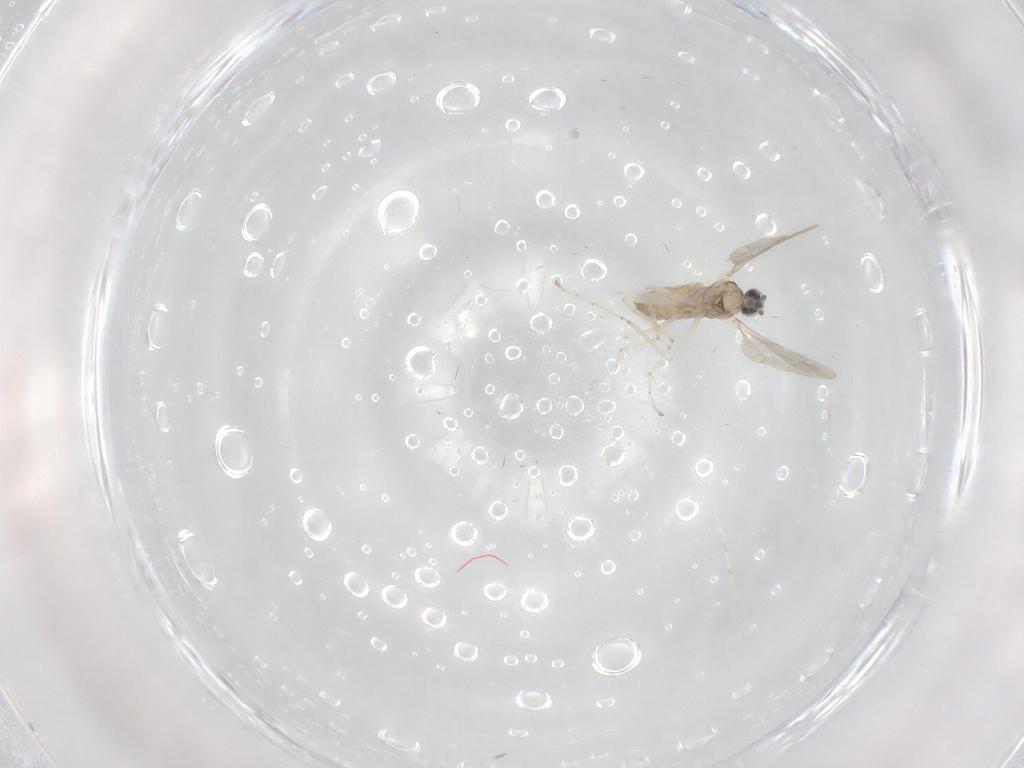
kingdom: Animalia
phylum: Arthropoda
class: Insecta
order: Diptera
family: Cecidomyiidae
